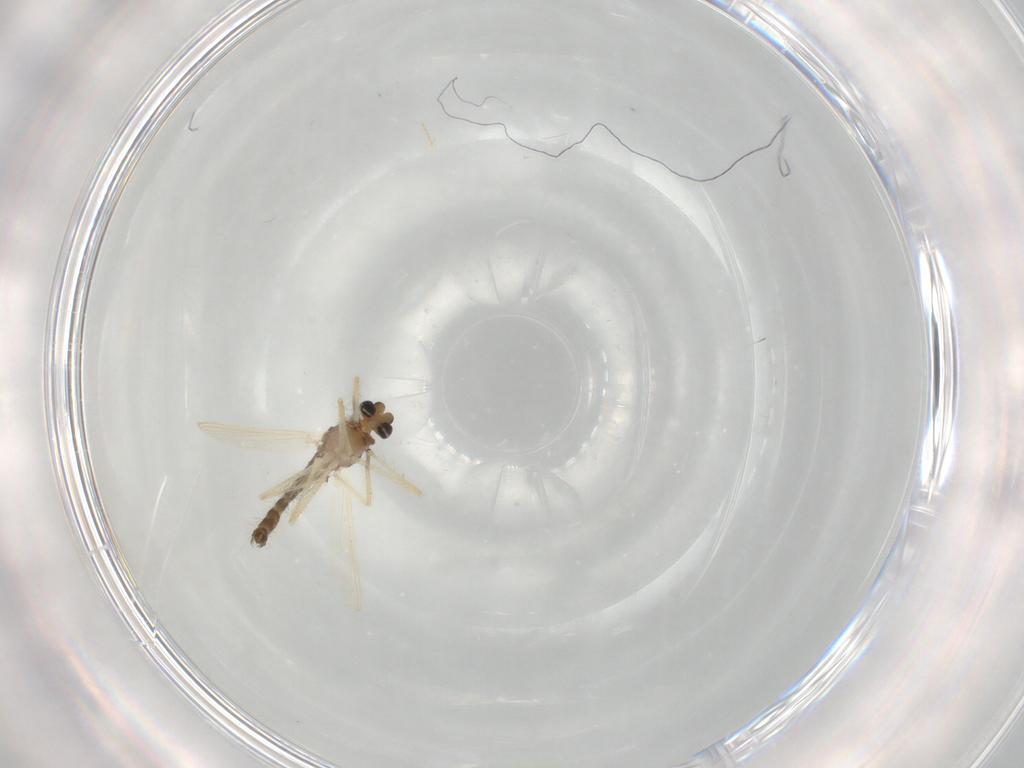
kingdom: Animalia
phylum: Arthropoda
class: Insecta
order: Diptera
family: Chironomidae
